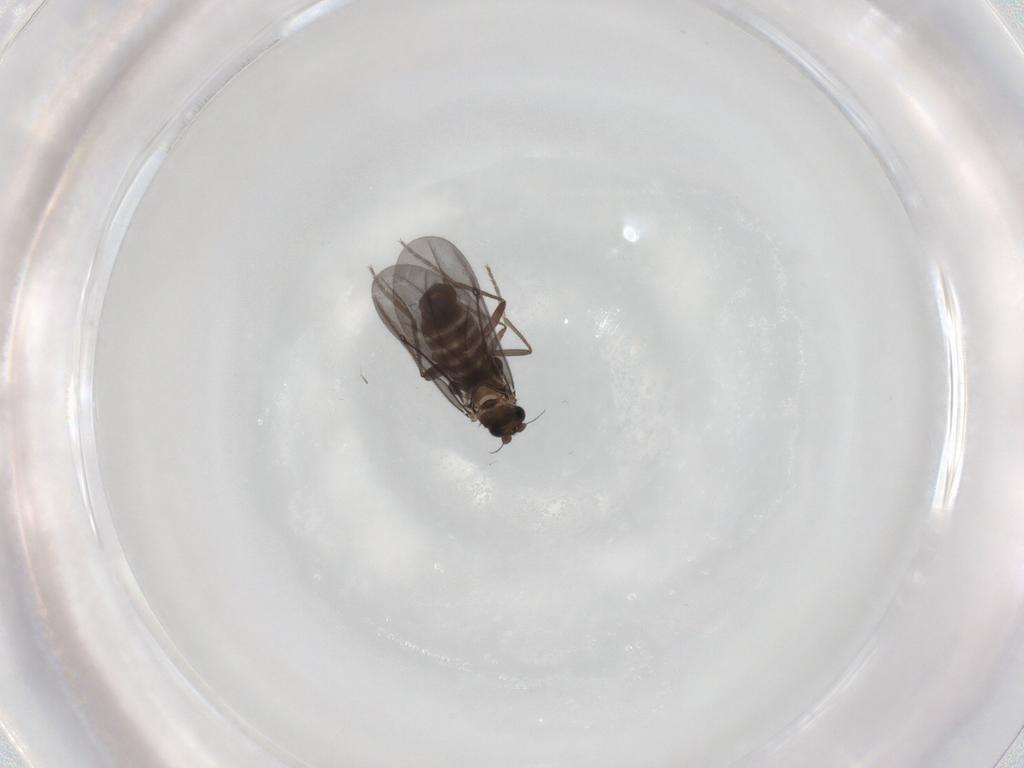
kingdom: Animalia
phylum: Arthropoda
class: Insecta
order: Diptera
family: Phoridae
